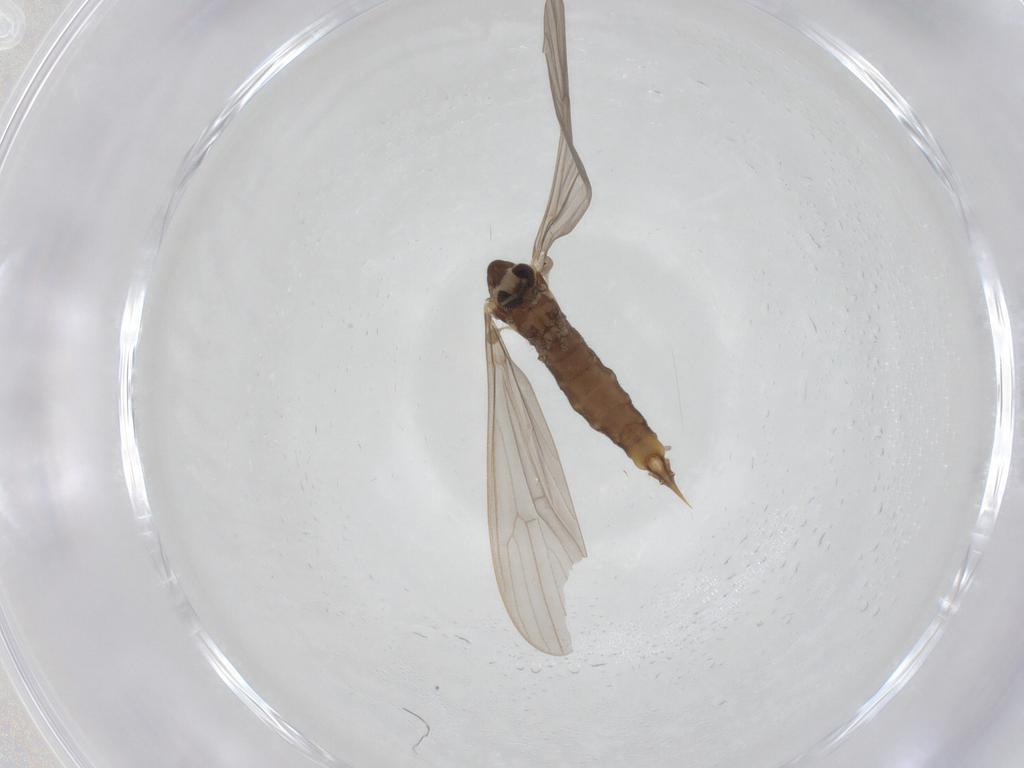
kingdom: Animalia
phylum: Arthropoda
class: Insecta
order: Diptera
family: Limoniidae
